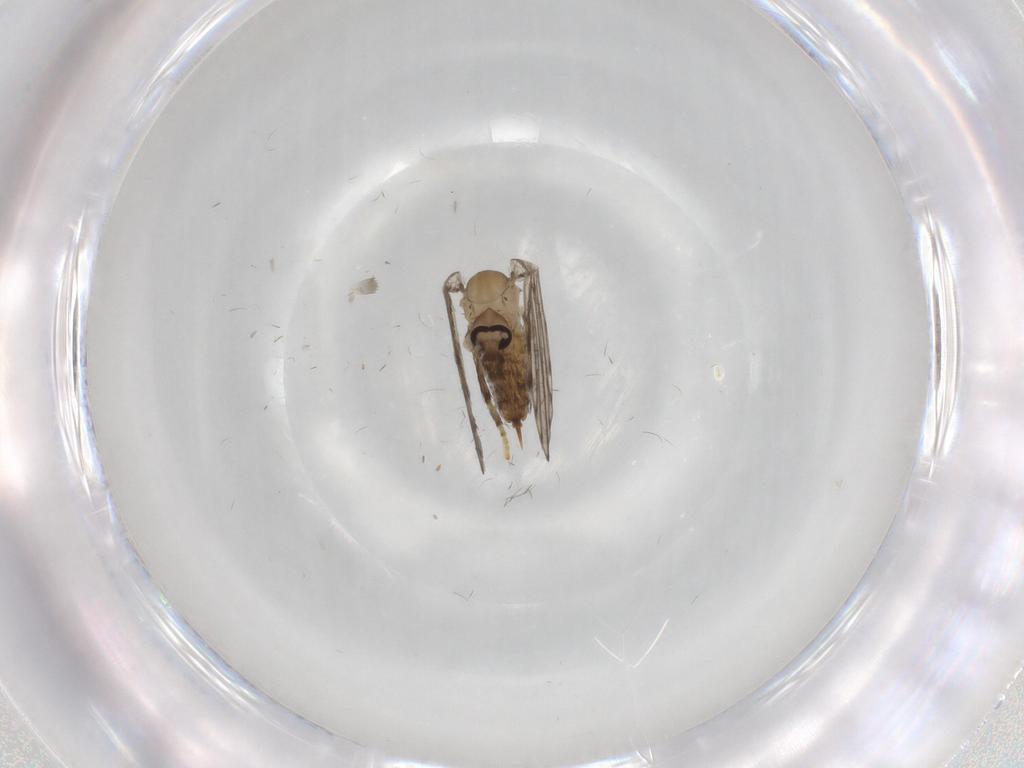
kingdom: Animalia
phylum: Arthropoda
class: Insecta
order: Diptera
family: Psychodidae
